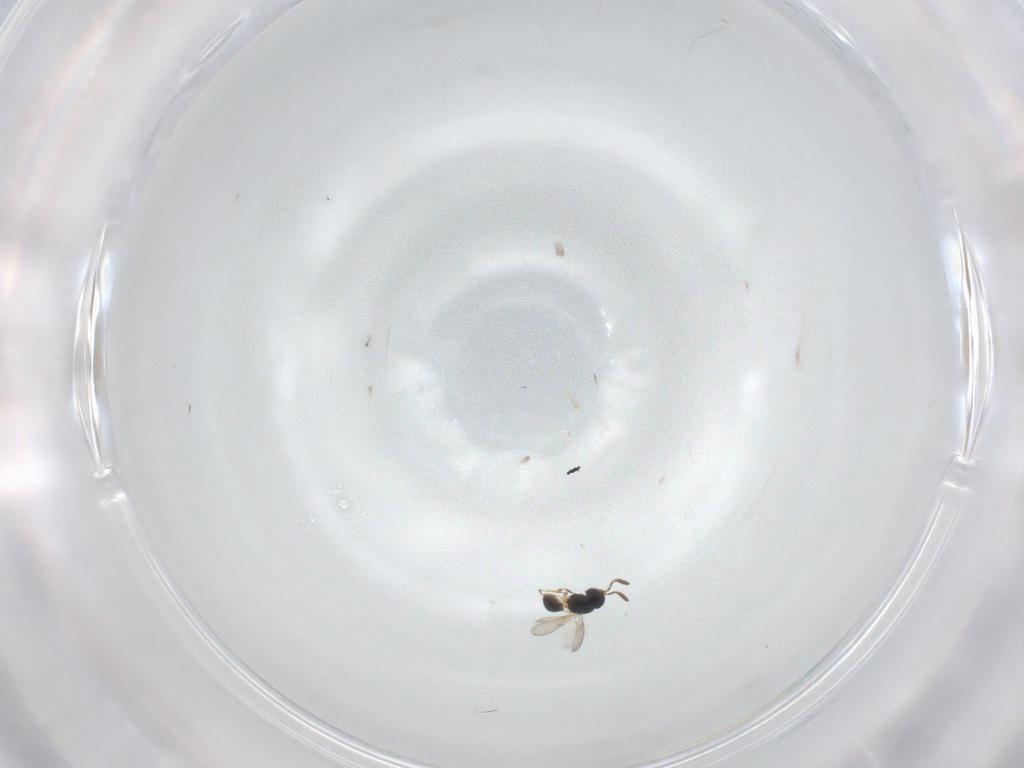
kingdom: Animalia
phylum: Arthropoda
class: Insecta
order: Hymenoptera
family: Scelionidae
